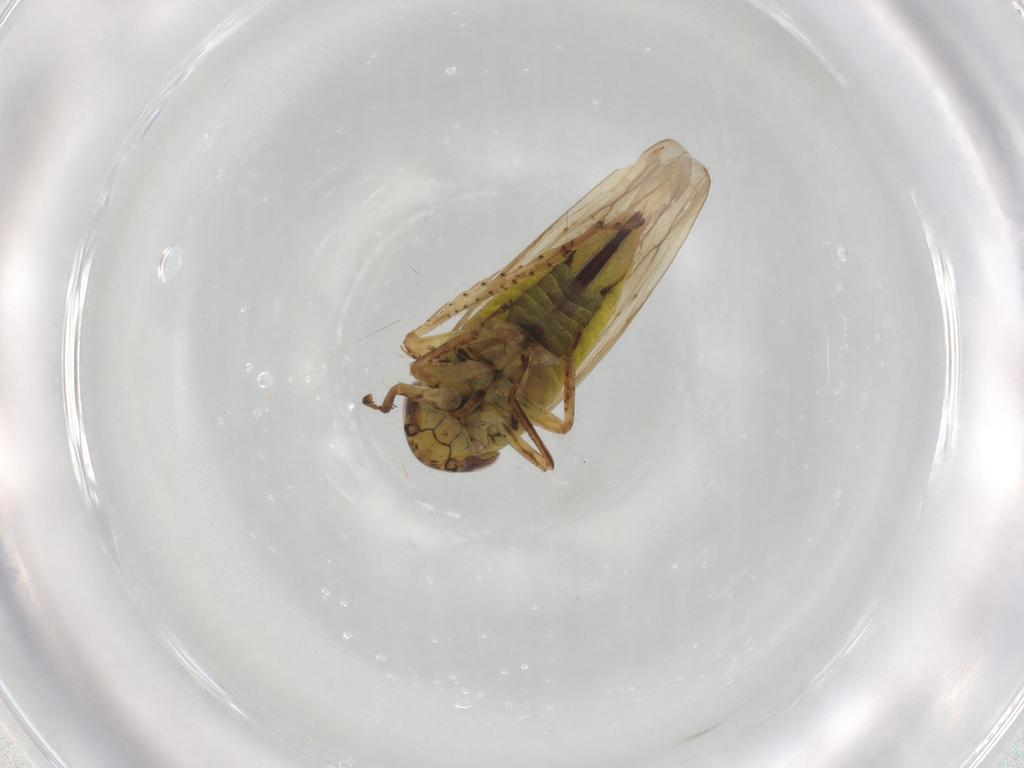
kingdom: Animalia
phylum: Arthropoda
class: Insecta
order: Hemiptera
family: Cicadellidae
